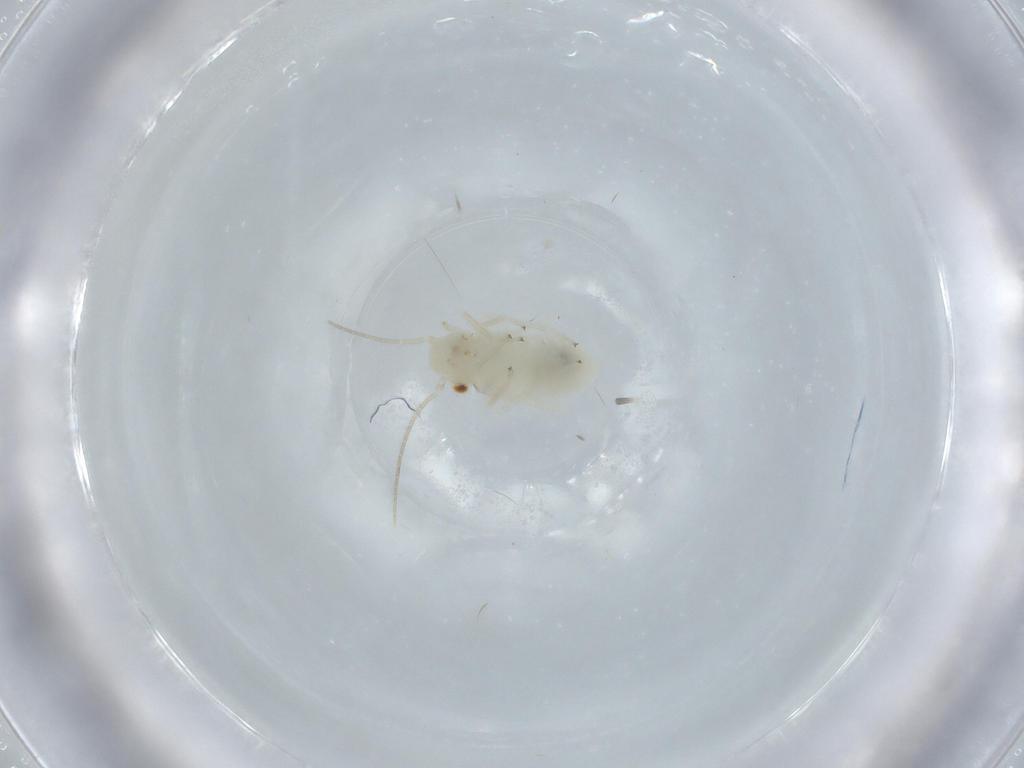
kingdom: Animalia
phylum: Arthropoda
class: Insecta
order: Psocodea
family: Caeciliusidae
